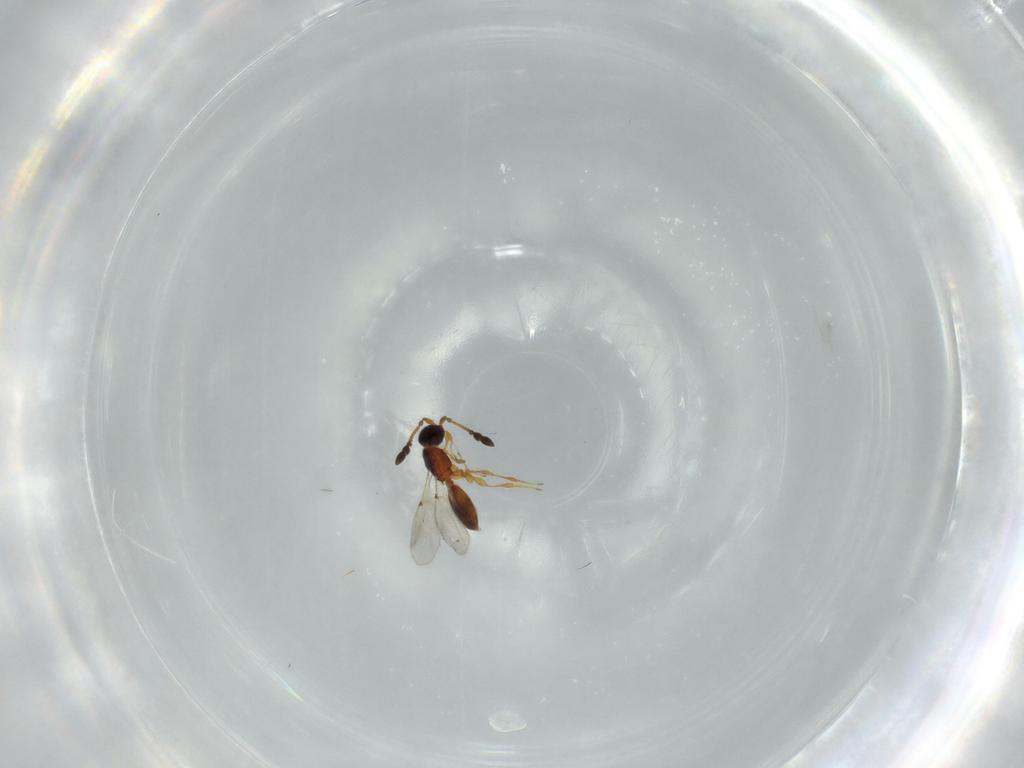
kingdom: Animalia
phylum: Arthropoda
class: Insecta
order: Hymenoptera
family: Diapriidae
